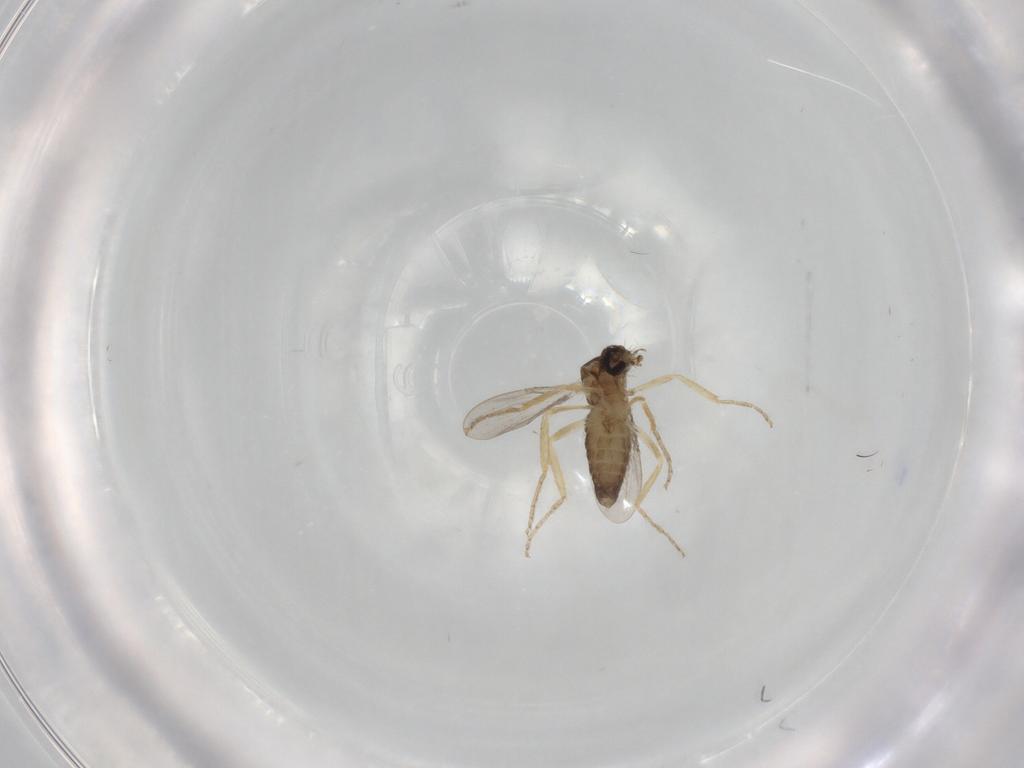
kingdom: Animalia
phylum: Arthropoda
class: Insecta
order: Diptera
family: Ceratopogonidae
